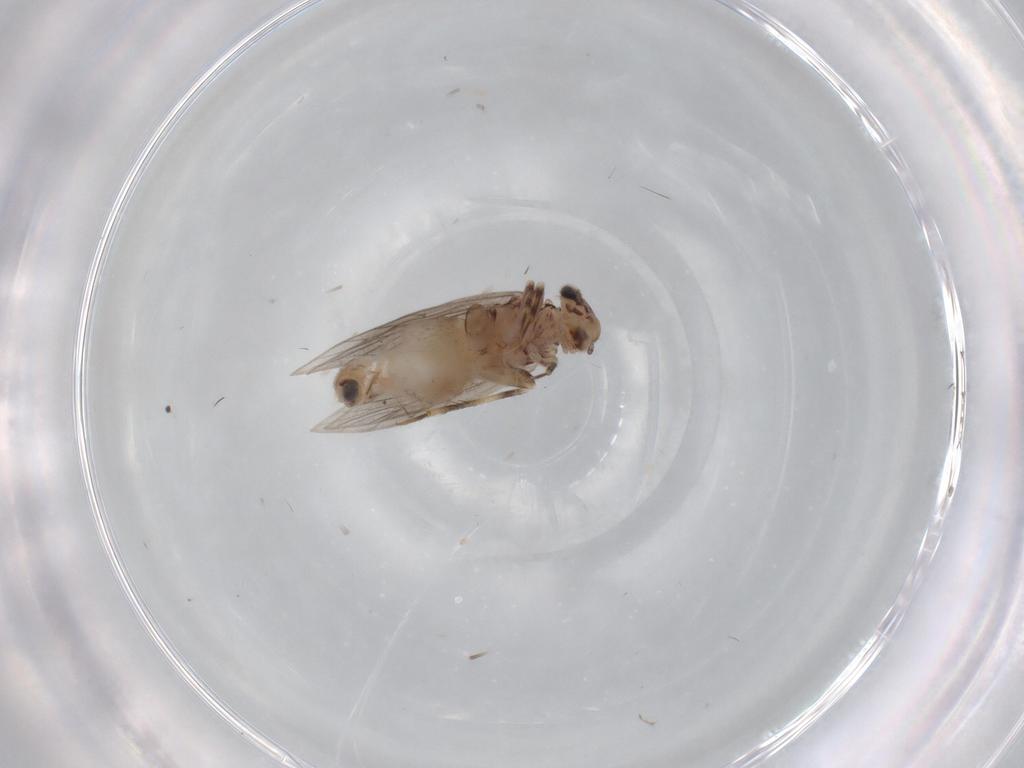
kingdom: Animalia
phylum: Arthropoda
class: Insecta
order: Psocodea
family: Lepidopsocidae
